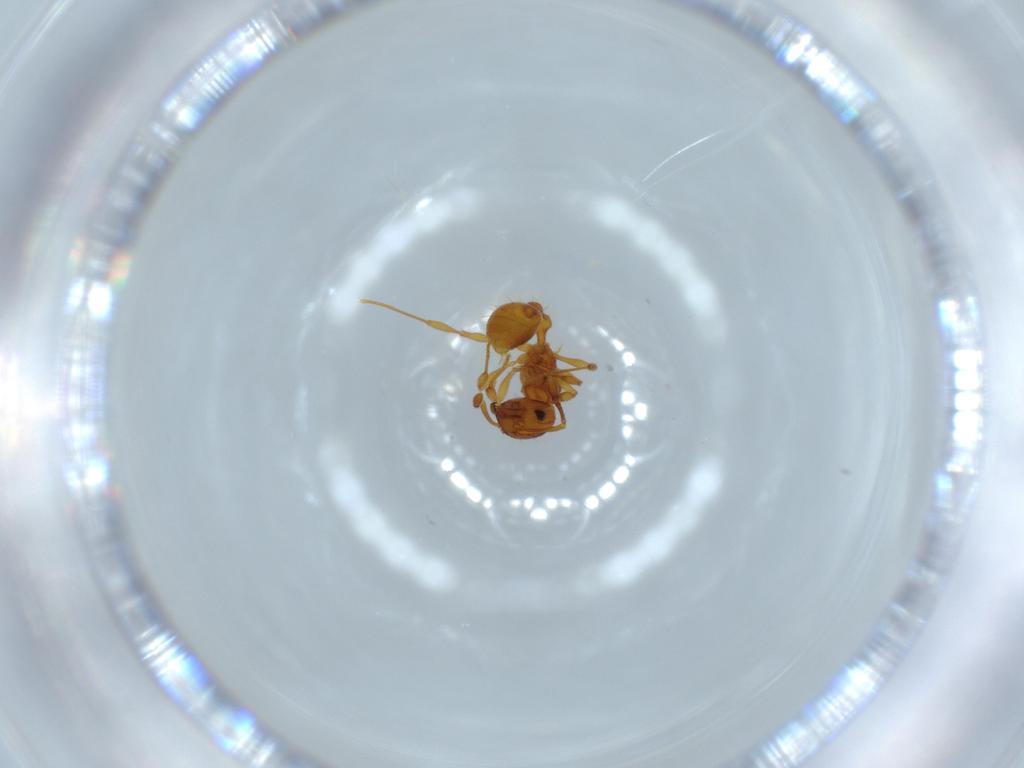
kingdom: Animalia
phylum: Arthropoda
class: Insecta
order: Hymenoptera
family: Formicidae
